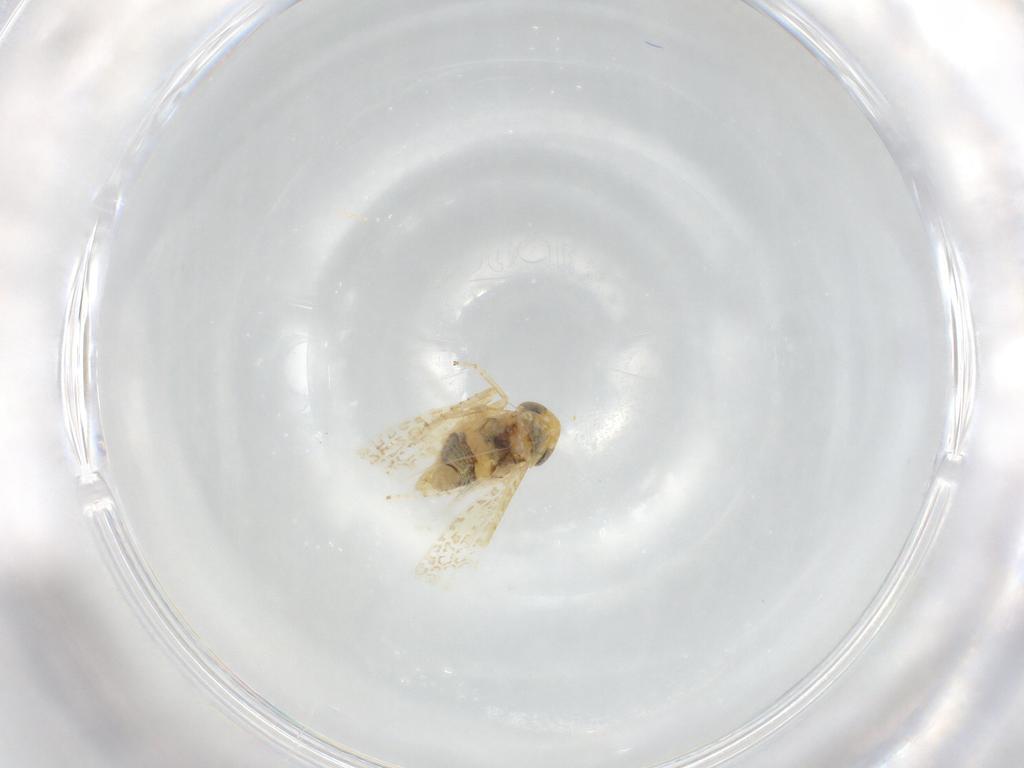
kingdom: Animalia
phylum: Arthropoda
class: Insecta
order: Hemiptera
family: Cicadellidae
